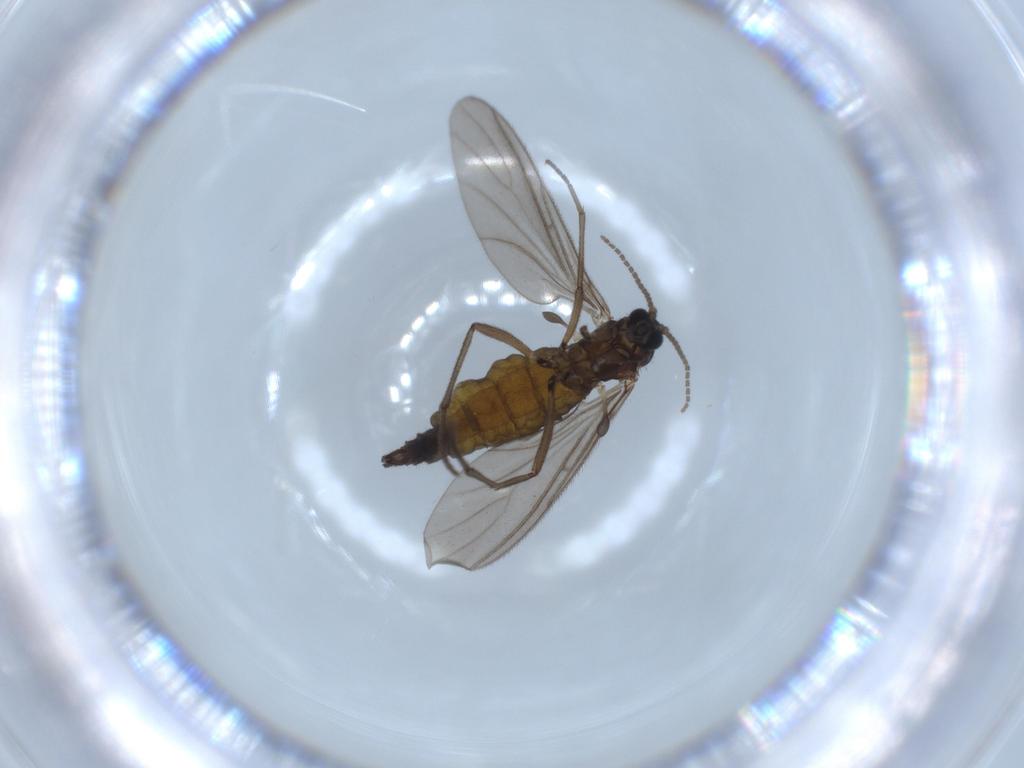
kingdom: Animalia
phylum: Arthropoda
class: Insecta
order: Diptera
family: Sciaridae
